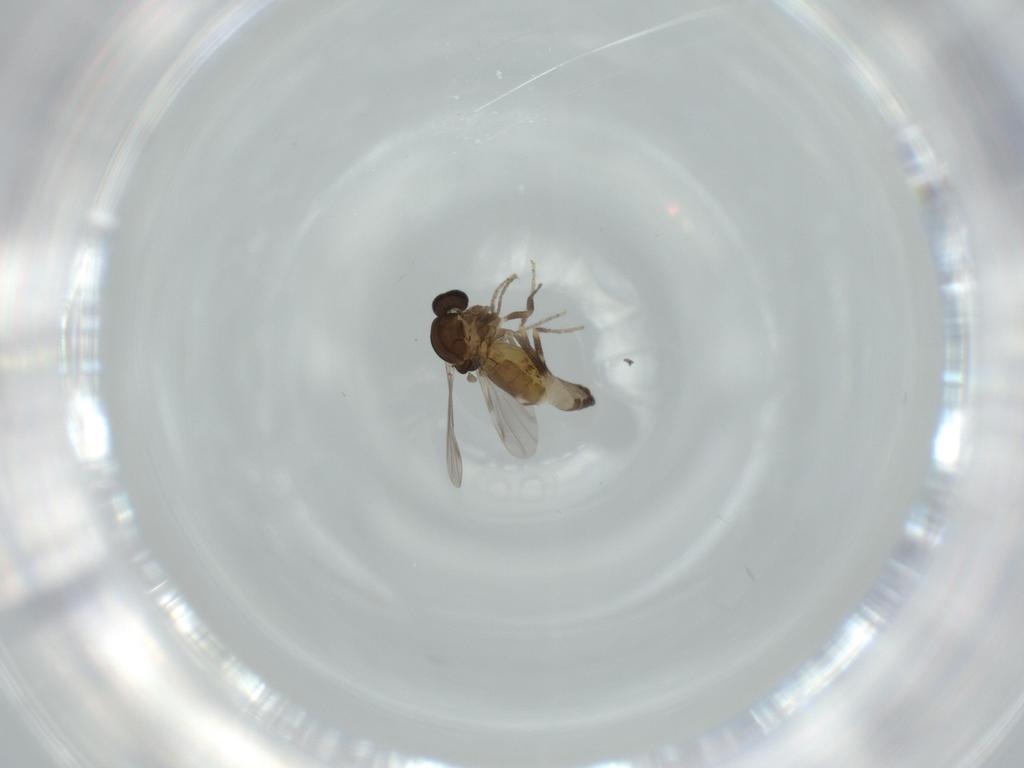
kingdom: Animalia
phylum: Arthropoda
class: Insecta
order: Diptera
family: Ceratopogonidae
